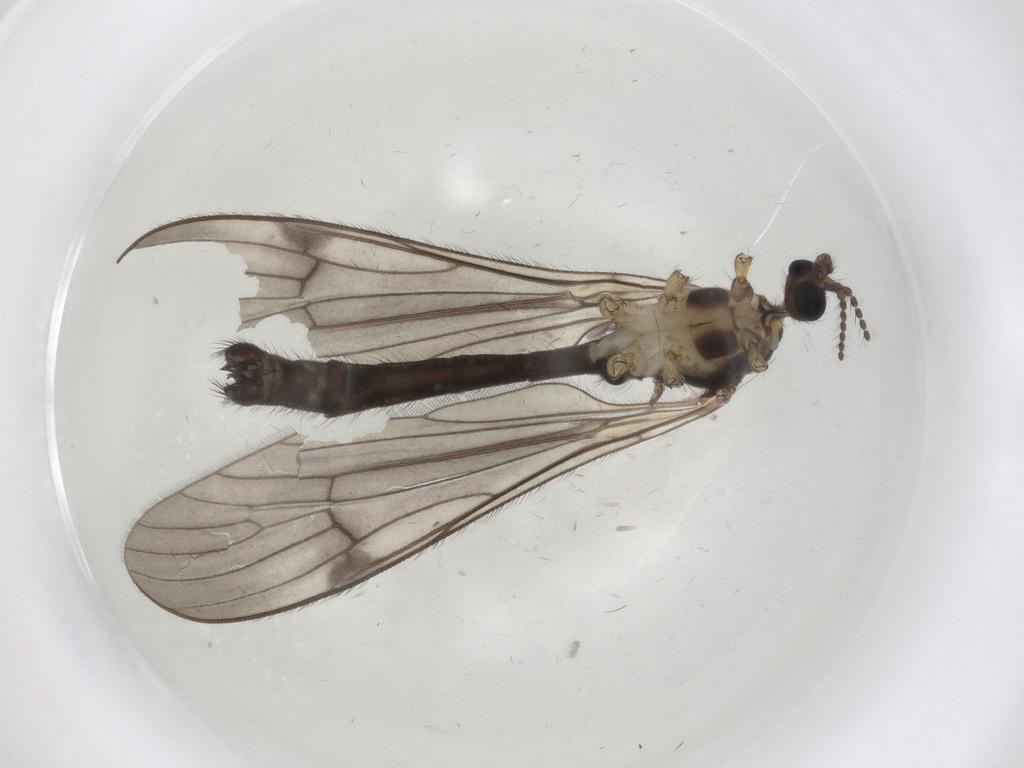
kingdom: Animalia
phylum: Arthropoda
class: Insecta
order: Diptera
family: Limoniidae
